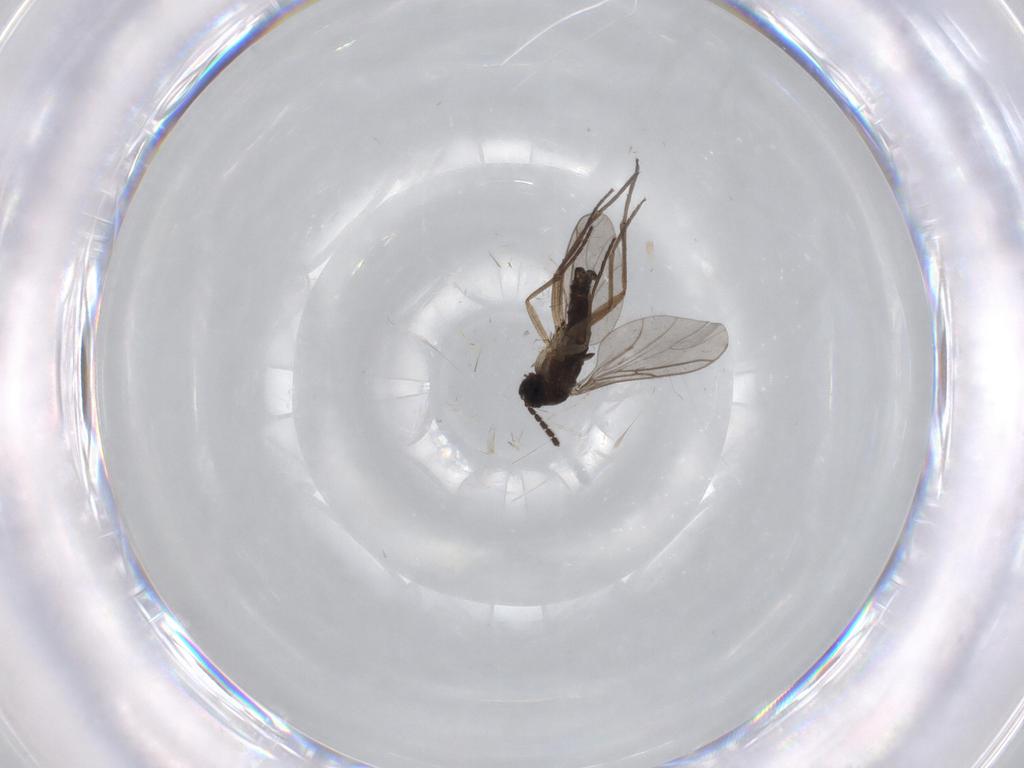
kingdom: Animalia
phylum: Arthropoda
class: Insecta
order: Diptera
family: Sciaridae
